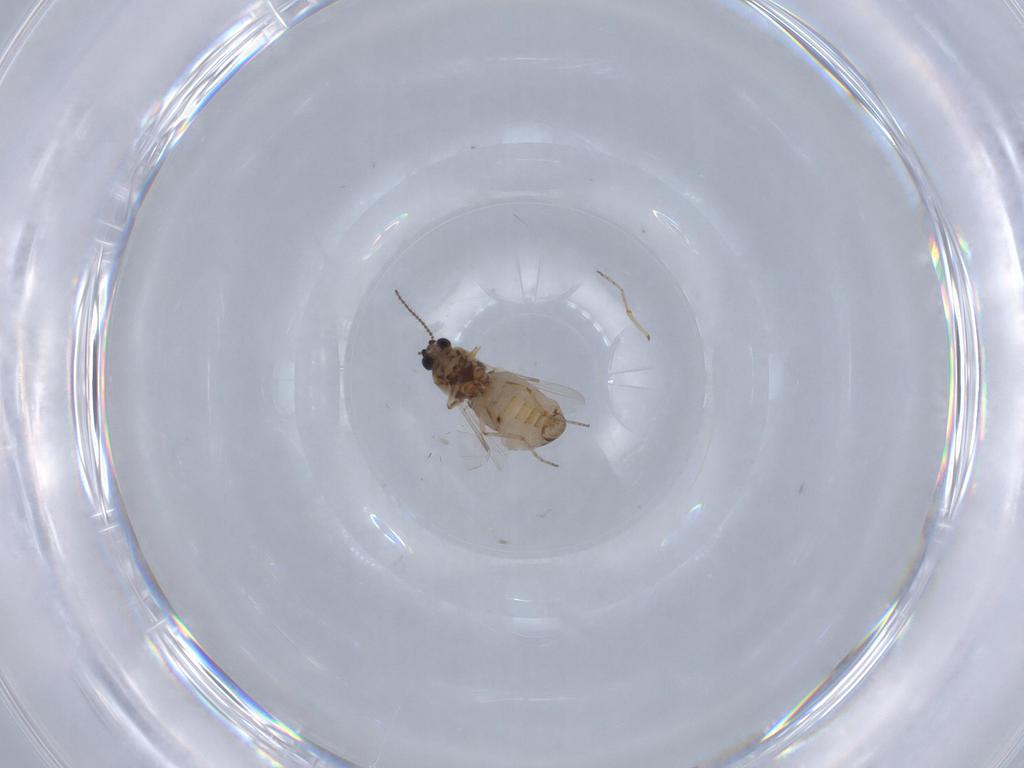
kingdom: Animalia
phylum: Arthropoda
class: Insecta
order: Diptera
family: Ceratopogonidae
